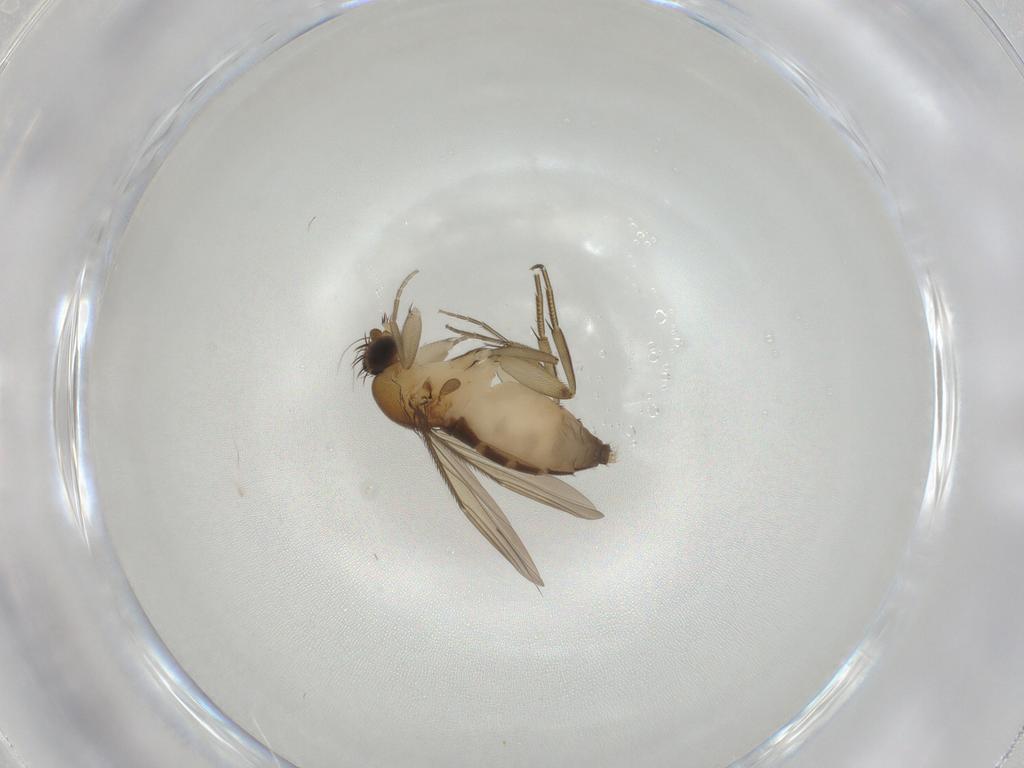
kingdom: Animalia
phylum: Arthropoda
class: Insecta
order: Diptera
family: Phoridae
